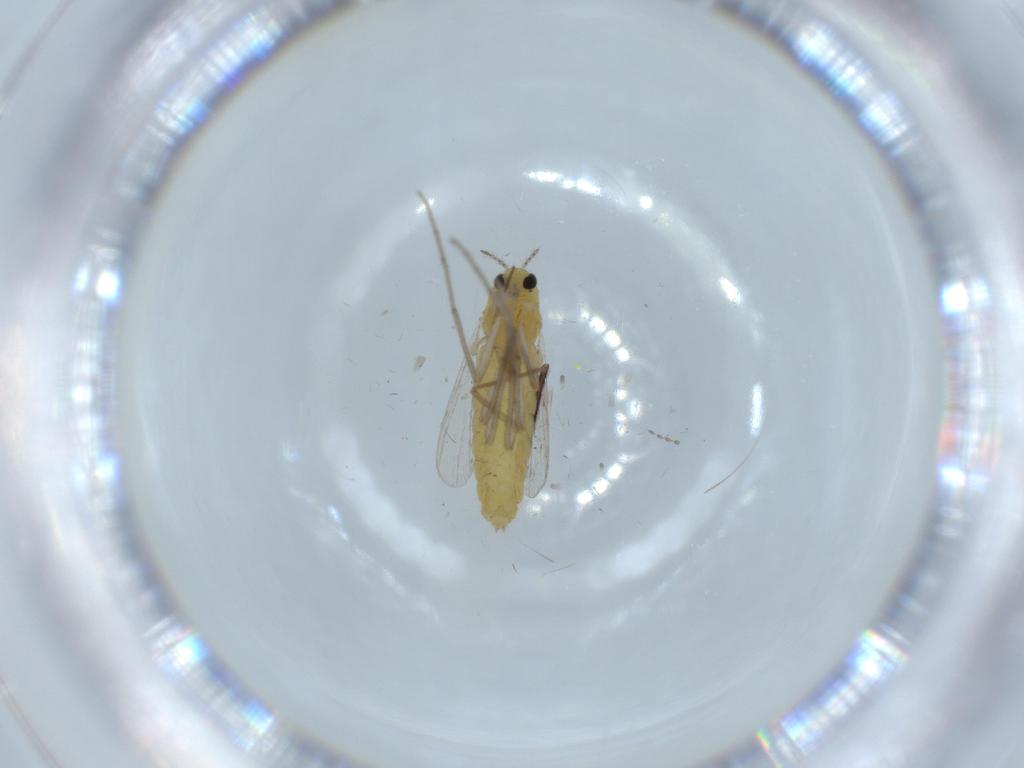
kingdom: Animalia
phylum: Arthropoda
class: Insecta
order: Diptera
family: Chironomidae
